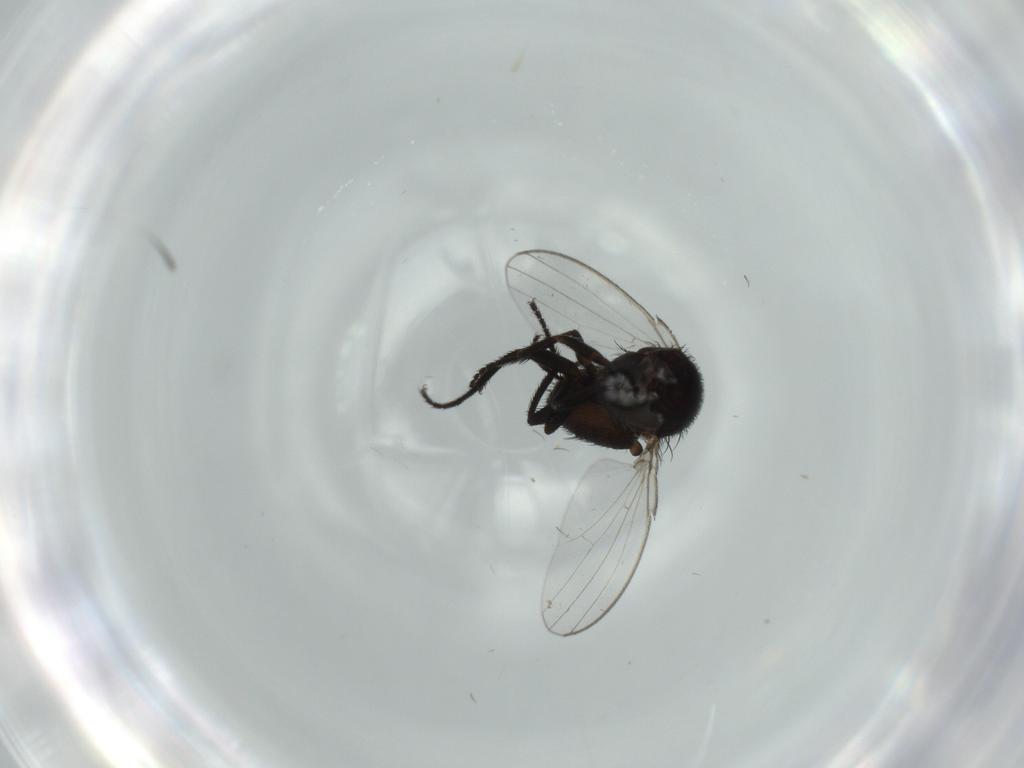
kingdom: Animalia
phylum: Arthropoda
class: Insecta
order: Diptera
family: Milichiidae
